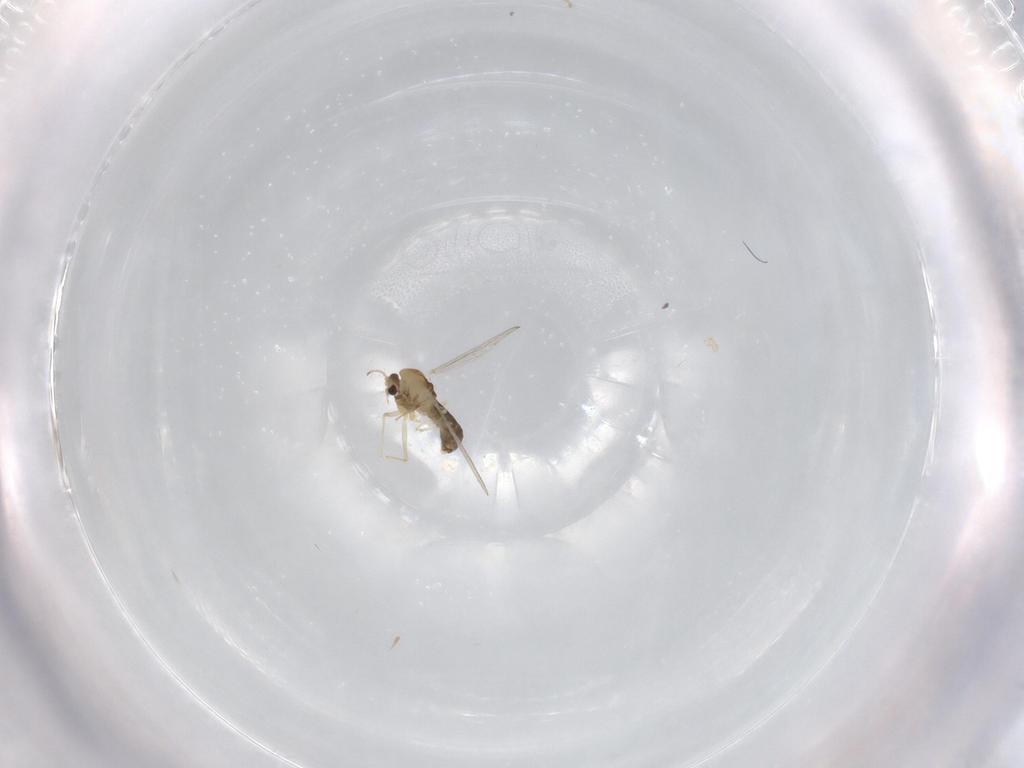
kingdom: Animalia
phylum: Arthropoda
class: Insecta
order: Diptera
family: Chironomidae
